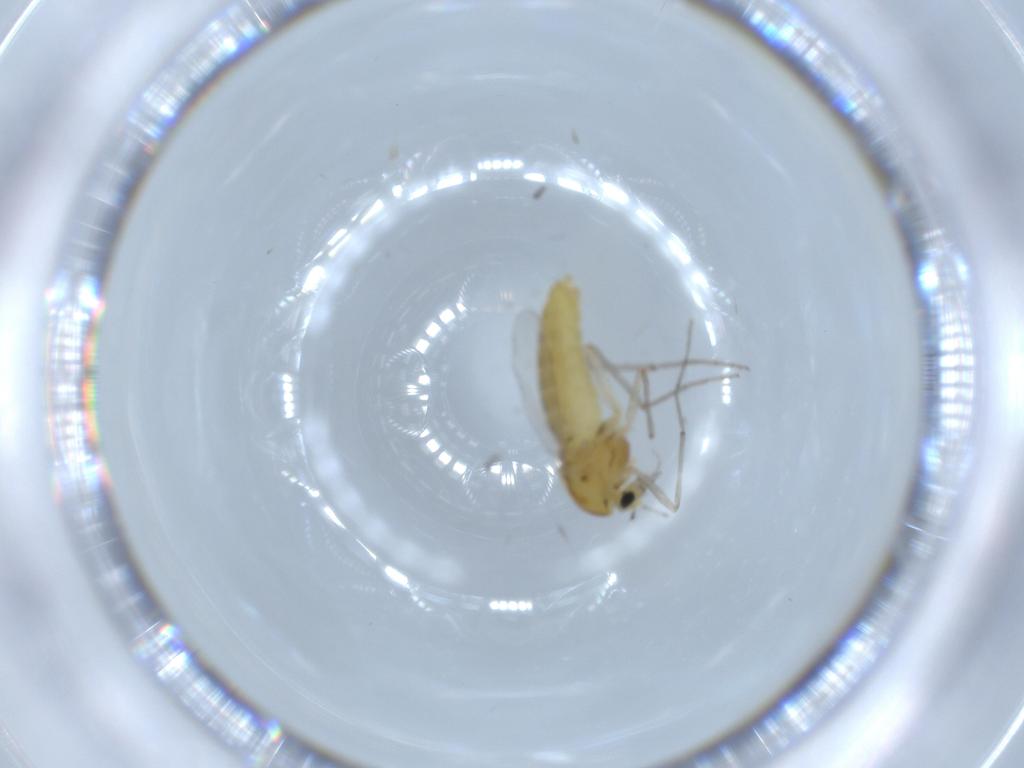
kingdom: Animalia
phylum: Arthropoda
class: Insecta
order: Diptera
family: Chironomidae
